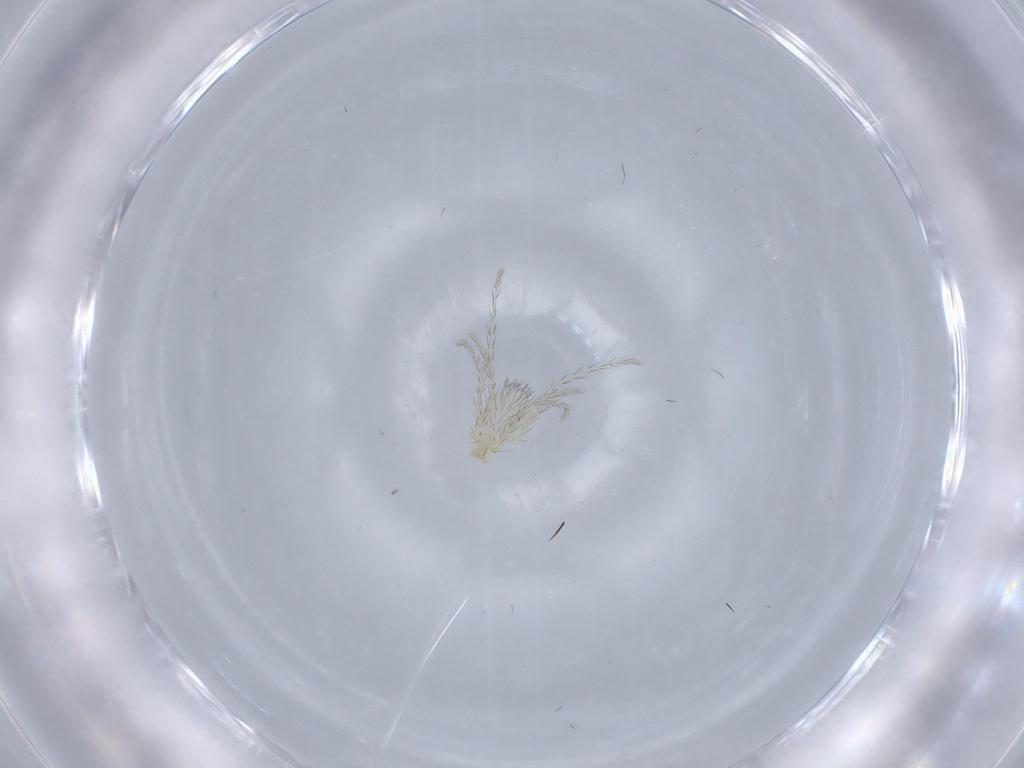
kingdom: Animalia
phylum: Arthropoda
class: Arachnida
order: Trombidiformes
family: Erythraeidae
